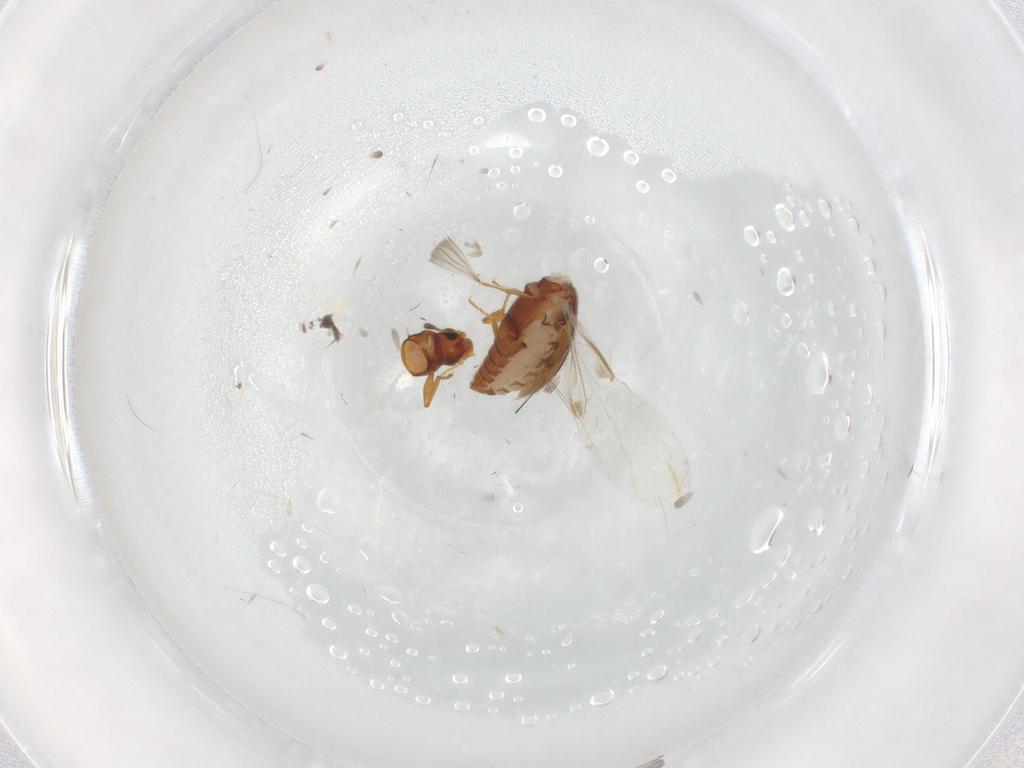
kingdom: Animalia
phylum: Arthropoda
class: Insecta
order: Coleoptera
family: Latridiidae
